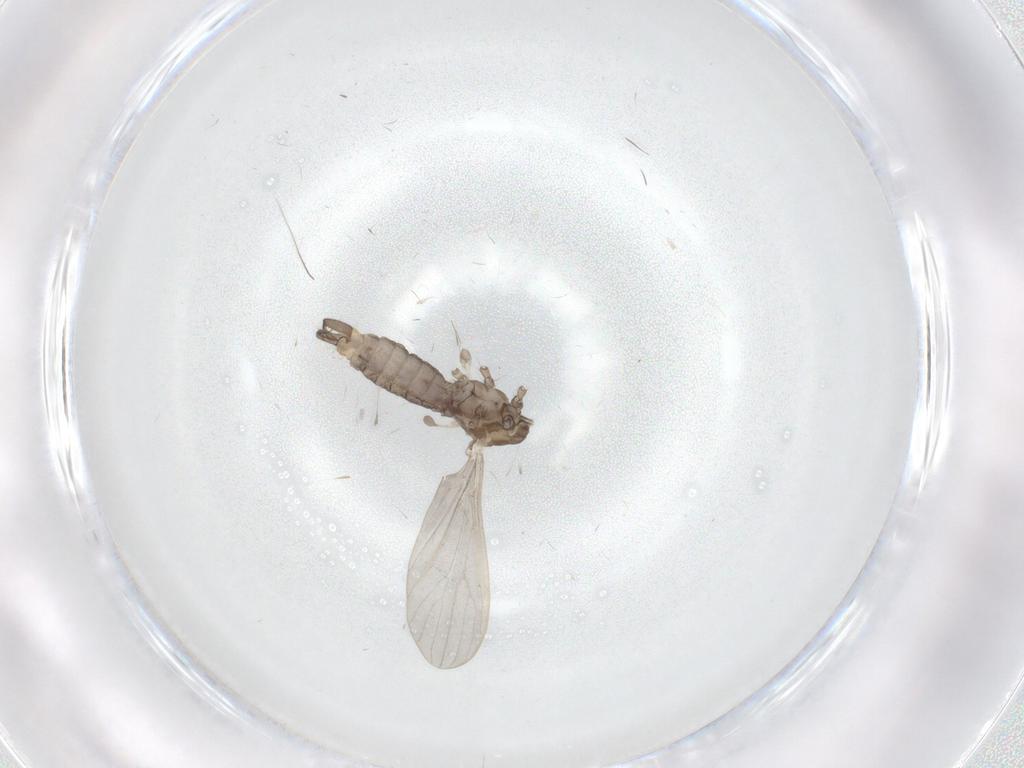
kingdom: Animalia
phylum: Arthropoda
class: Insecta
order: Diptera
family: Limoniidae
